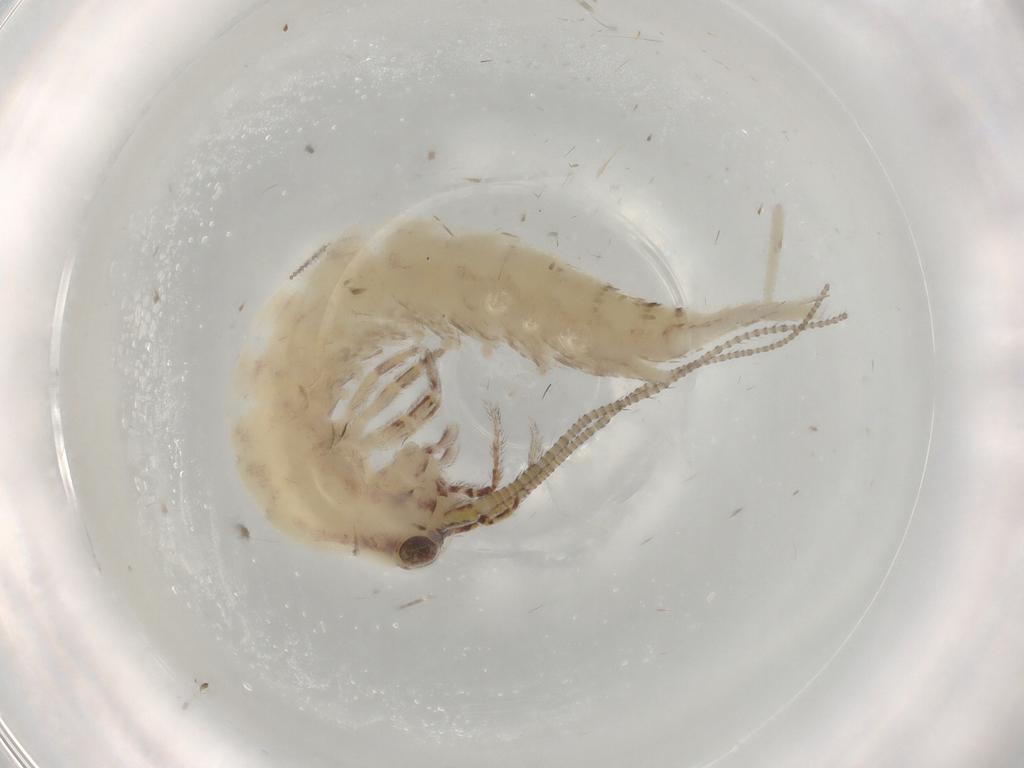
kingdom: Animalia
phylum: Arthropoda
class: Insecta
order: Archaeognatha
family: Machilidae
